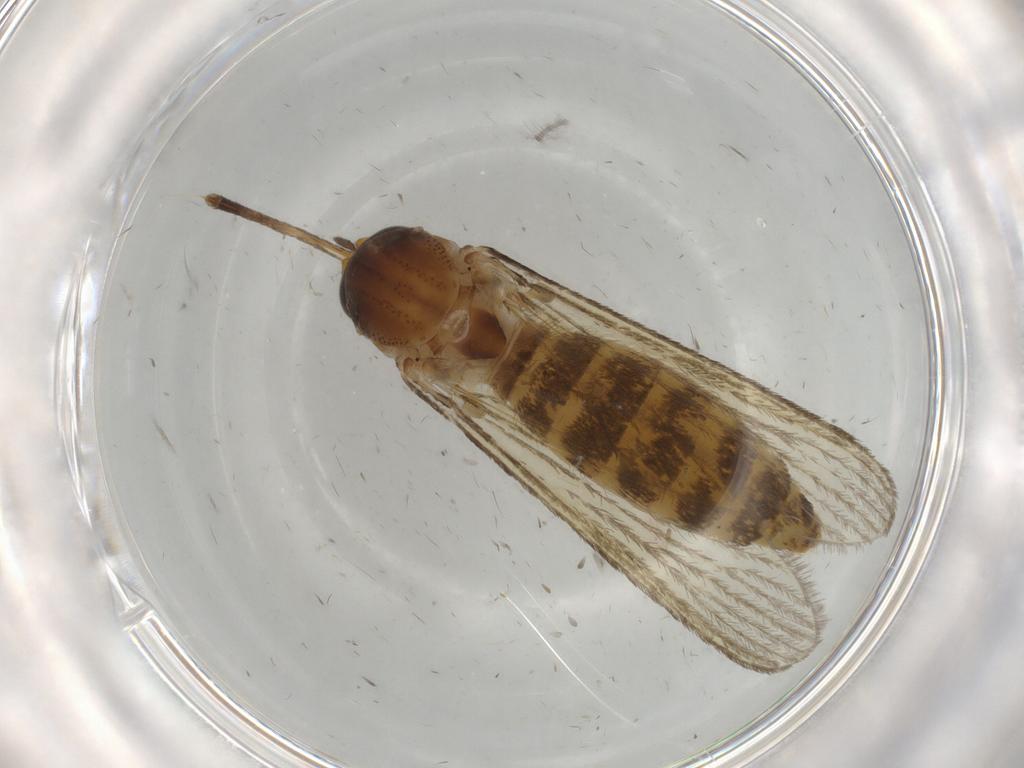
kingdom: Animalia
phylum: Arthropoda
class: Insecta
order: Diptera
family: Culicidae
